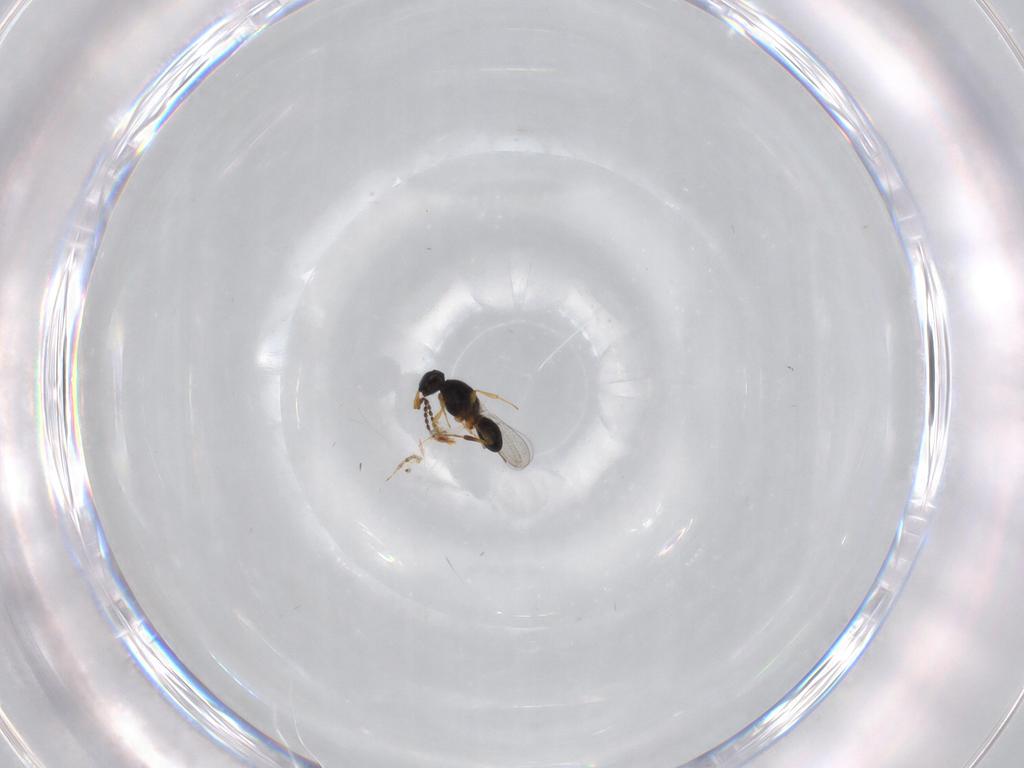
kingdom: Animalia
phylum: Arthropoda
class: Insecta
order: Hymenoptera
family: Platygastridae
